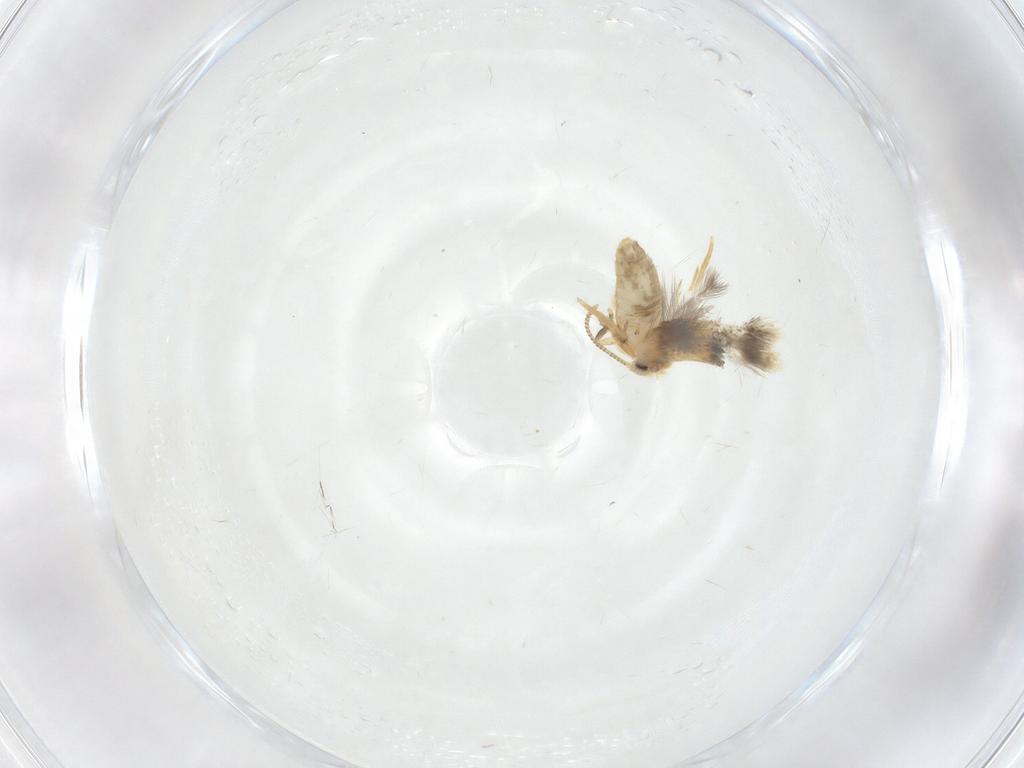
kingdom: Animalia
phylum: Arthropoda
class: Insecta
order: Lepidoptera
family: Nepticulidae
